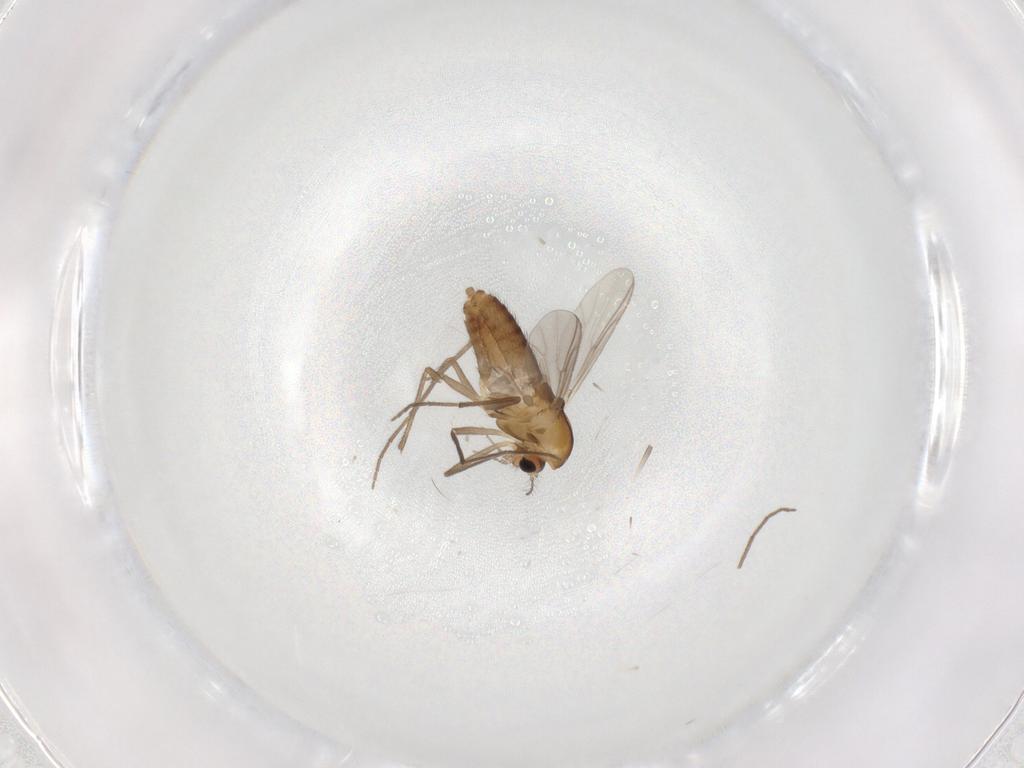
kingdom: Animalia
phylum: Arthropoda
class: Insecta
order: Diptera
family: Chironomidae
